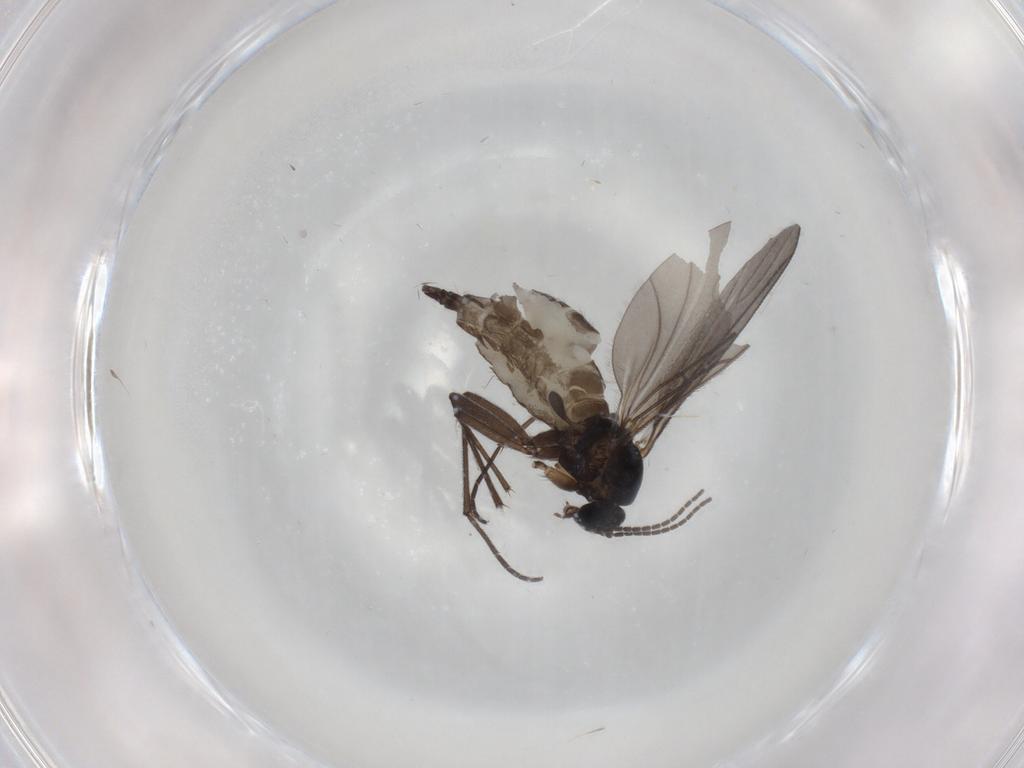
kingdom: Animalia
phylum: Arthropoda
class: Insecta
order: Diptera
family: Sciaridae
